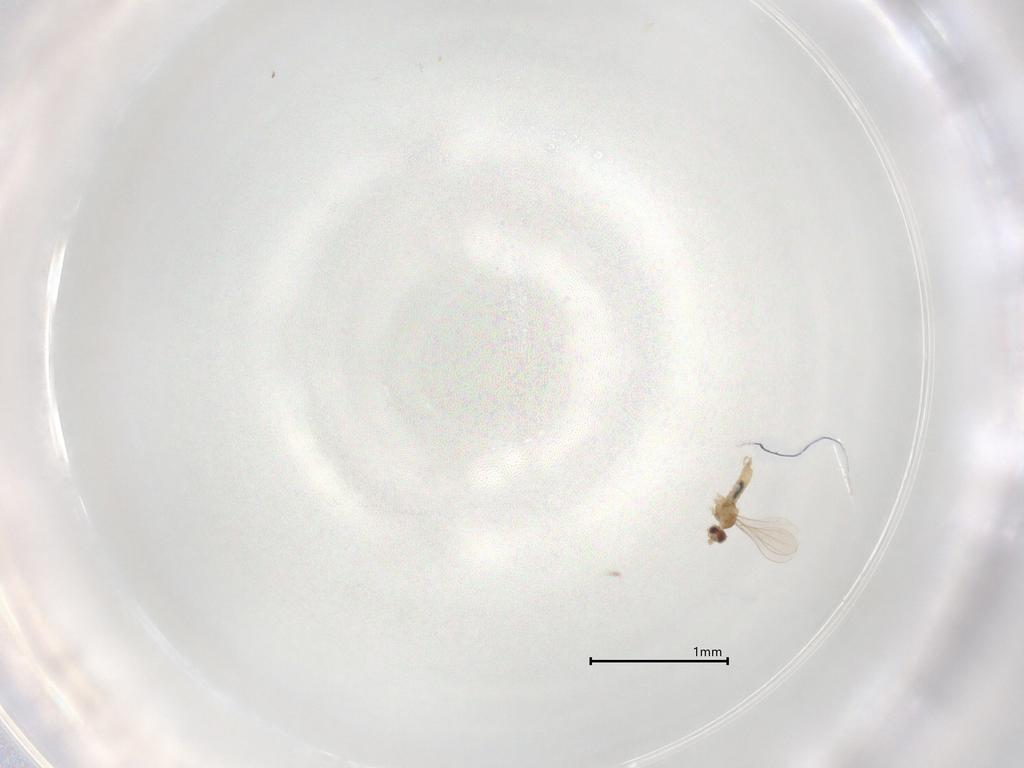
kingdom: Animalia
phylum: Arthropoda
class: Insecta
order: Diptera
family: Cecidomyiidae
